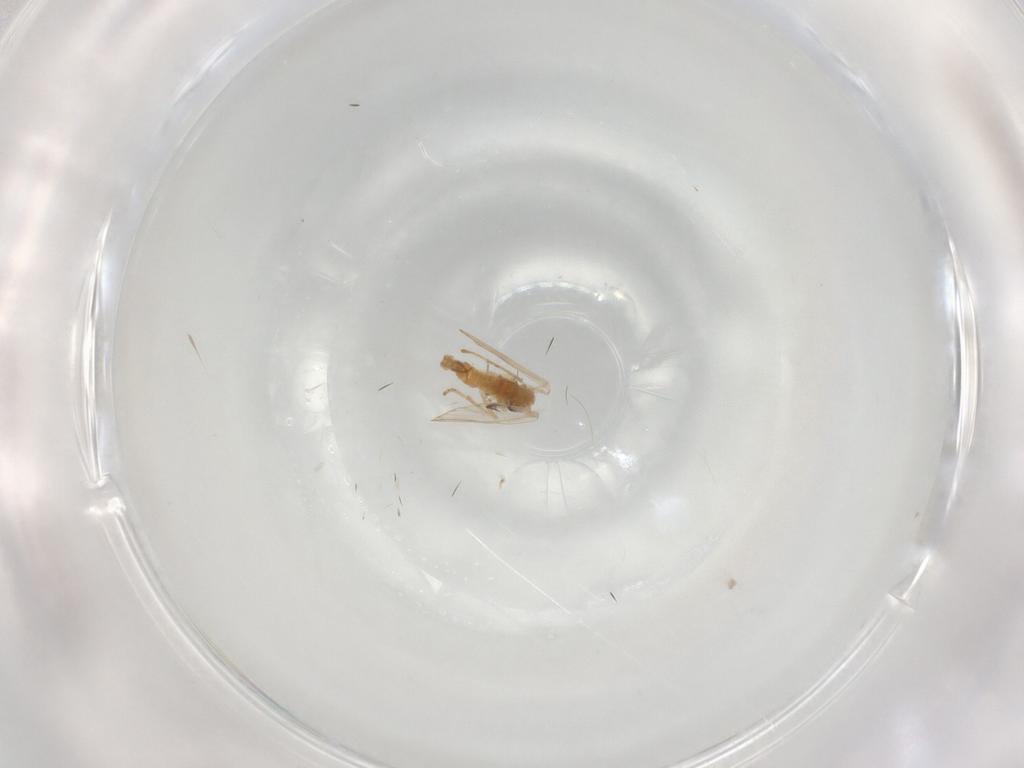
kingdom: Animalia
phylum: Arthropoda
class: Insecta
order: Diptera
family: Psychodidae
